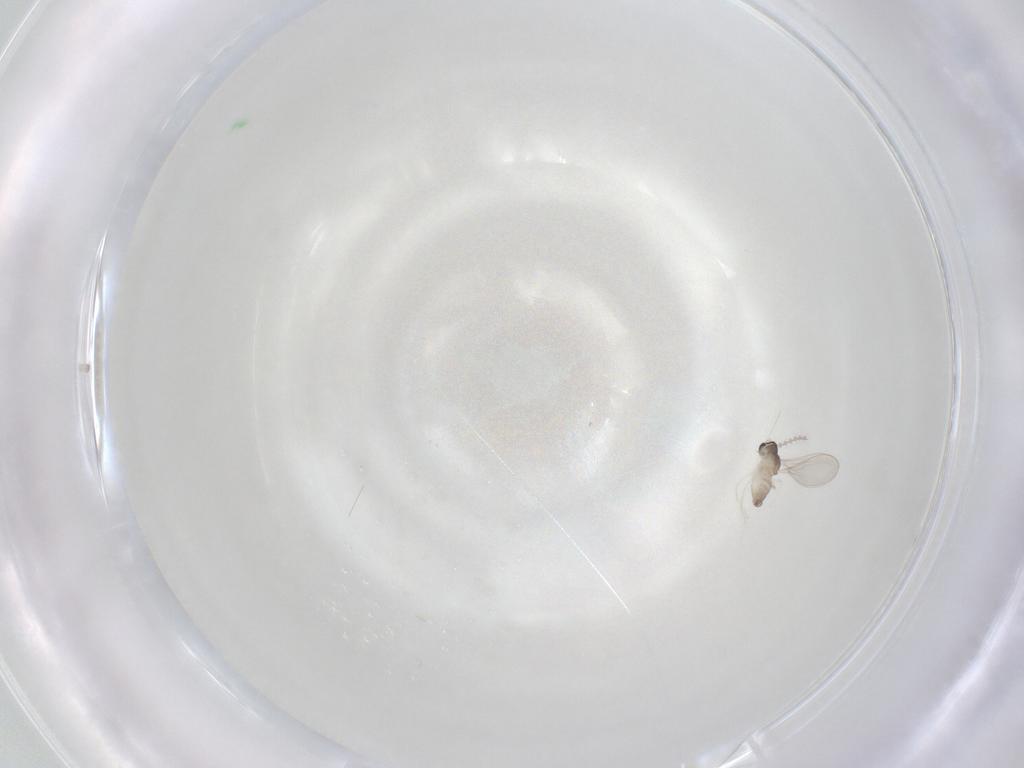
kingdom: Animalia
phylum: Arthropoda
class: Insecta
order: Diptera
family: Cecidomyiidae
